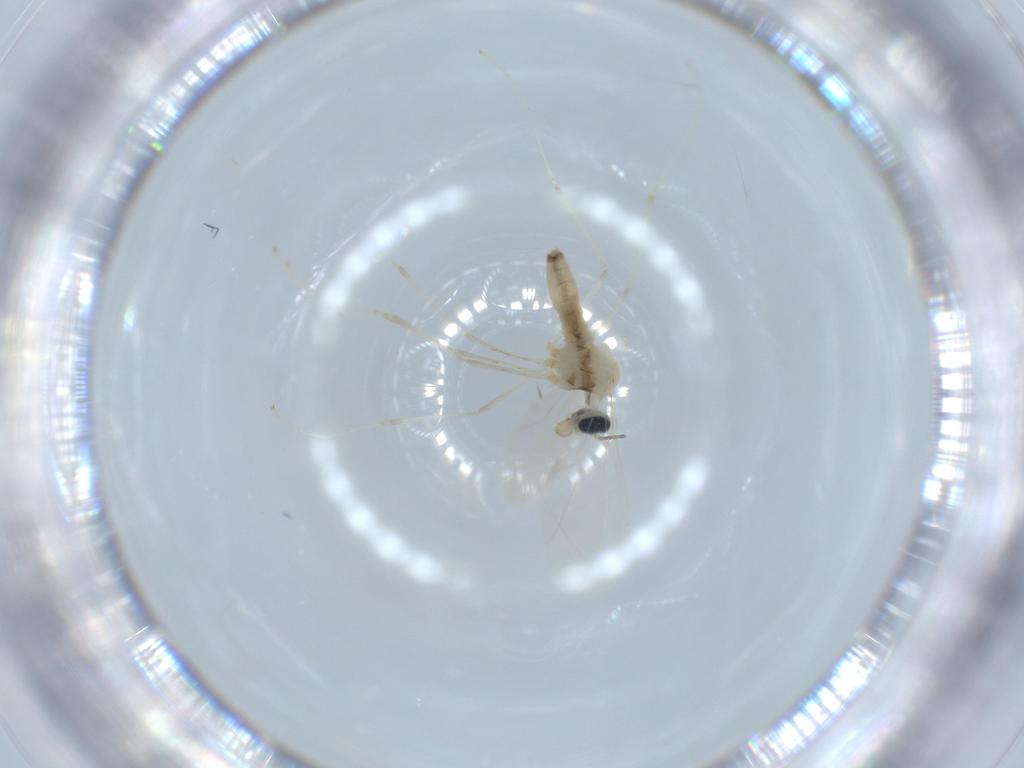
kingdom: Animalia
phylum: Arthropoda
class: Insecta
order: Diptera
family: Cecidomyiidae
